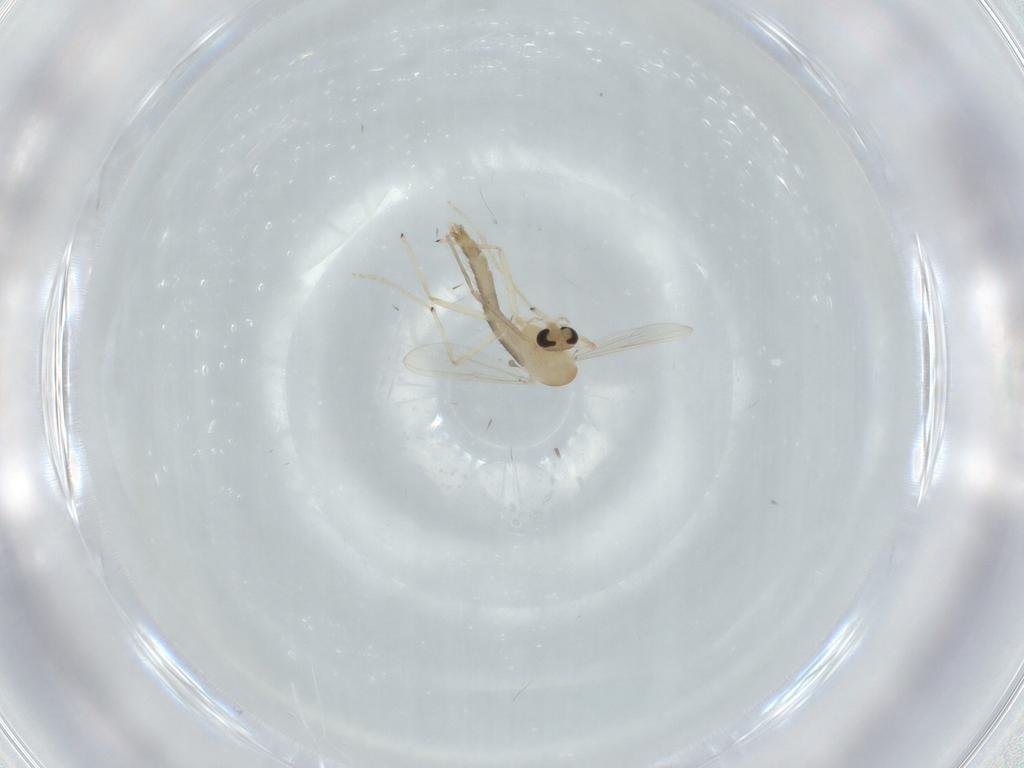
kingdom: Animalia
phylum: Arthropoda
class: Insecta
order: Diptera
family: Chironomidae
